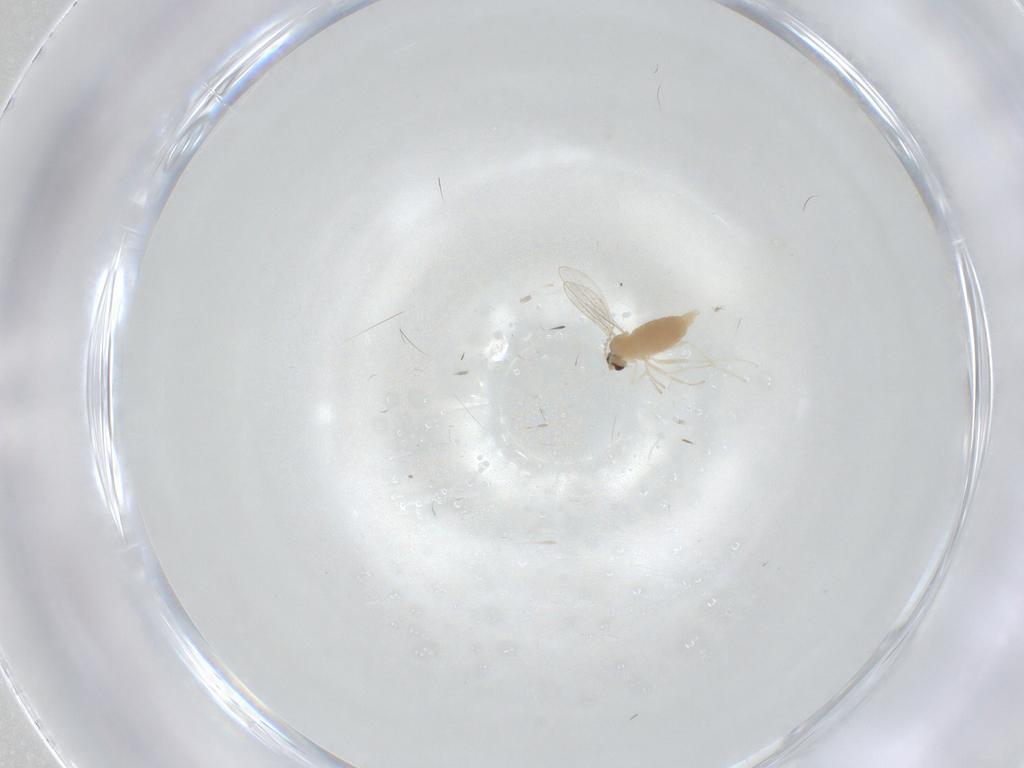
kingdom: Animalia
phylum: Arthropoda
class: Insecta
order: Diptera
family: Cecidomyiidae
